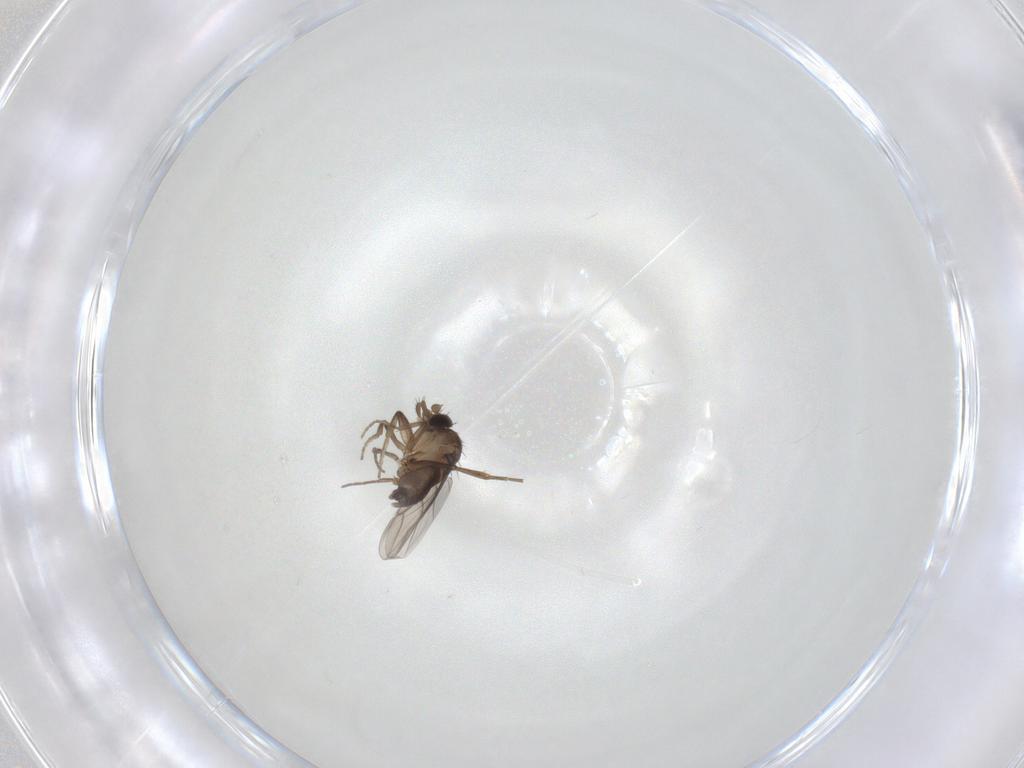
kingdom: Animalia
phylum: Arthropoda
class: Insecta
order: Diptera
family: Phoridae
